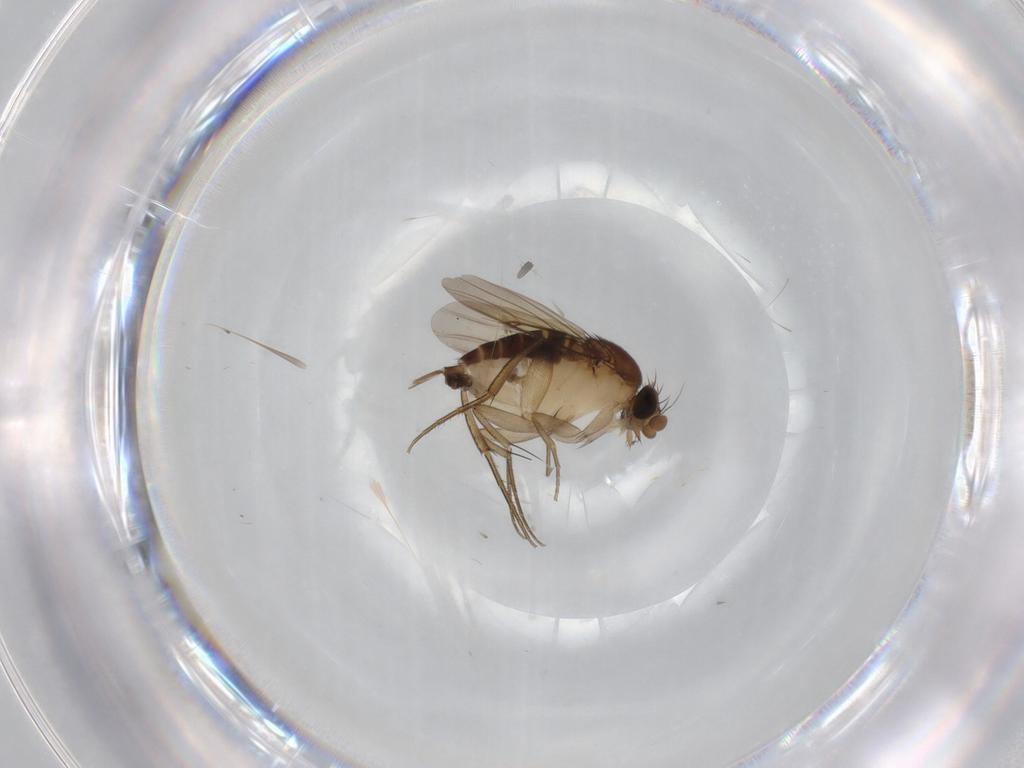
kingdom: Animalia
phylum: Arthropoda
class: Insecta
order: Diptera
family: Phoridae
